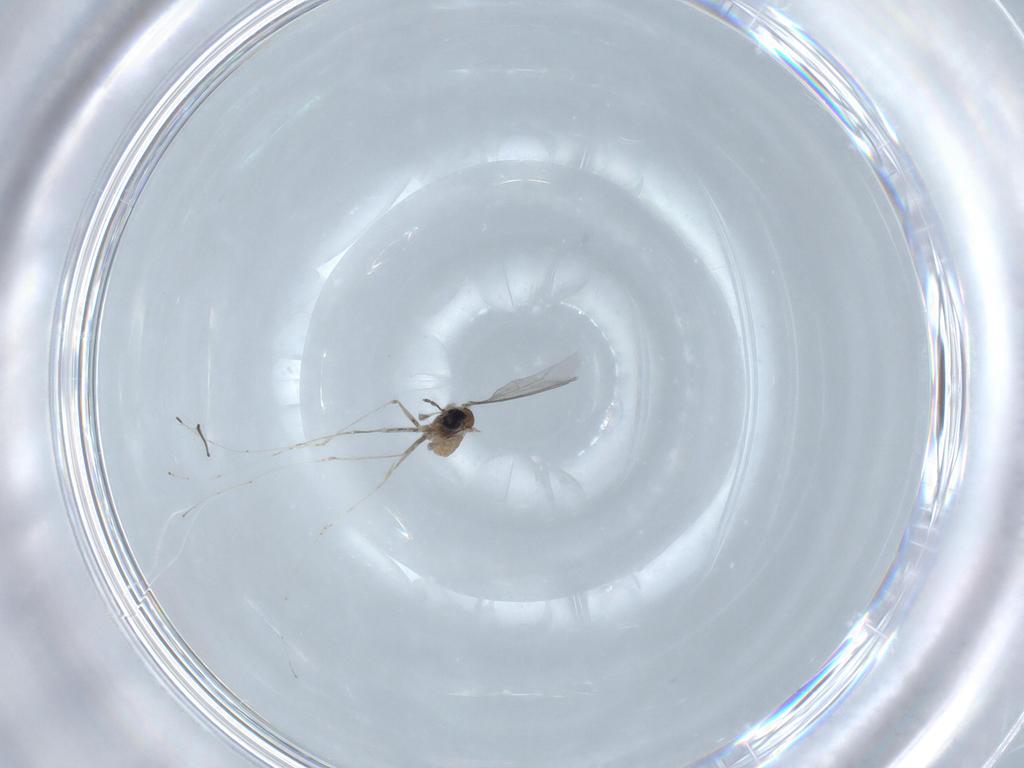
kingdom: Animalia
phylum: Arthropoda
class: Insecta
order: Diptera
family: Cecidomyiidae
